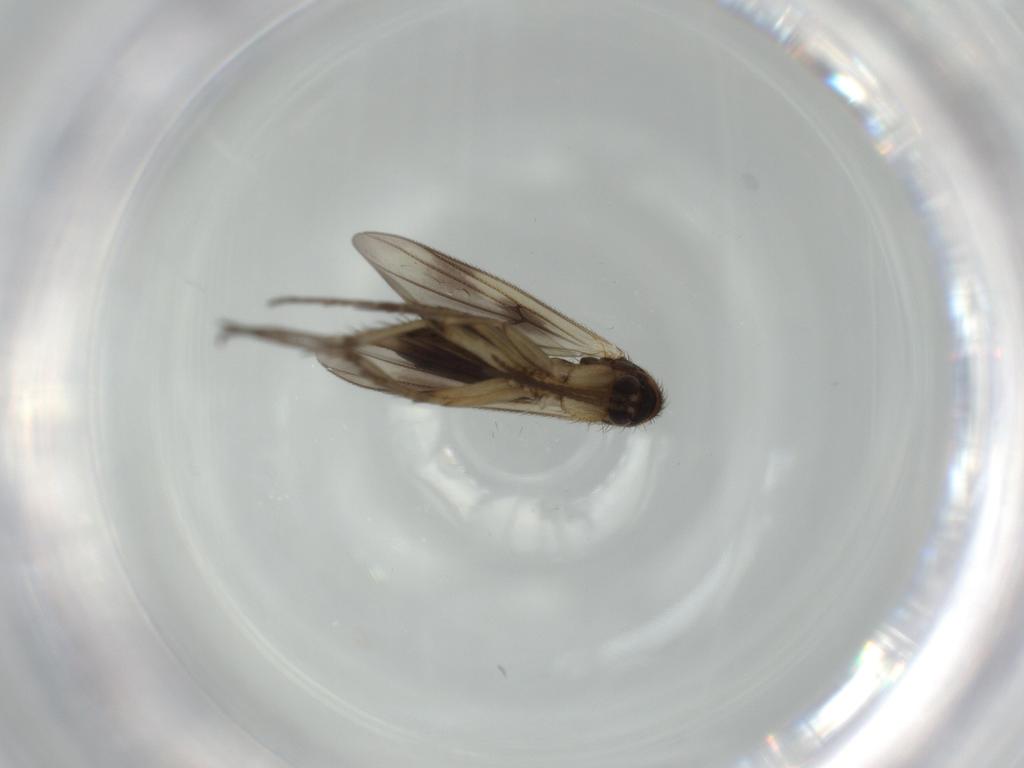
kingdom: Animalia
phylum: Arthropoda
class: Insecta
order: Diptera
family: Mycetophilidae
